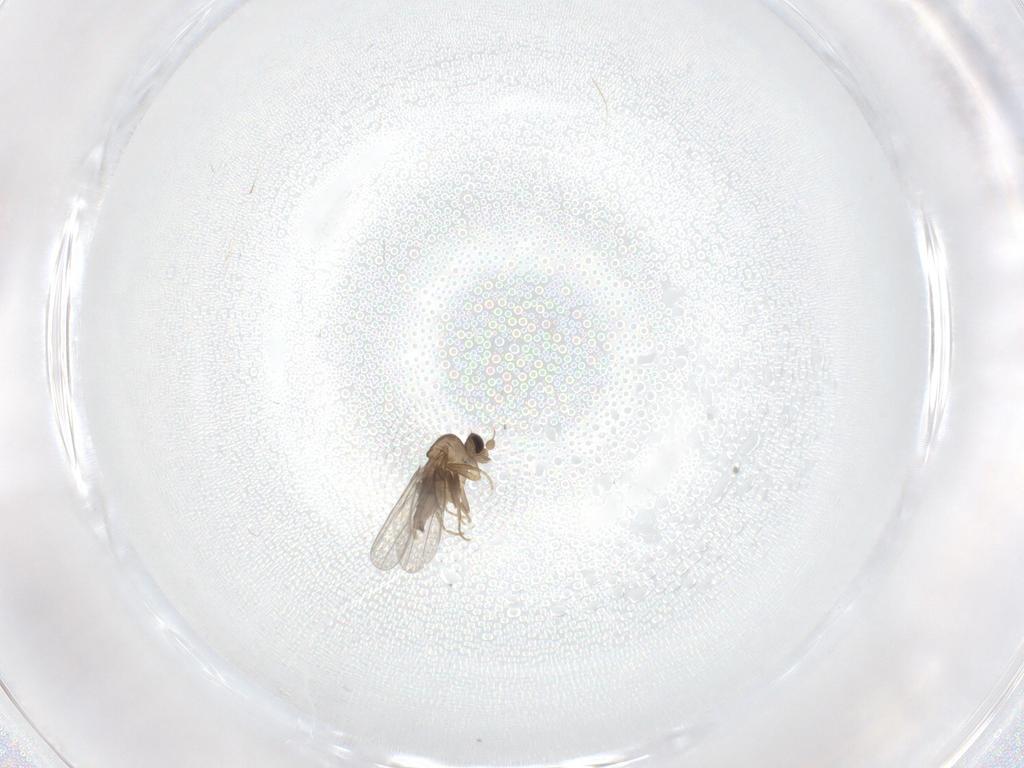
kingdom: Animalia
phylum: Arthropoda
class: Insecta
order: Diptera
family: Cecidomyiidae
